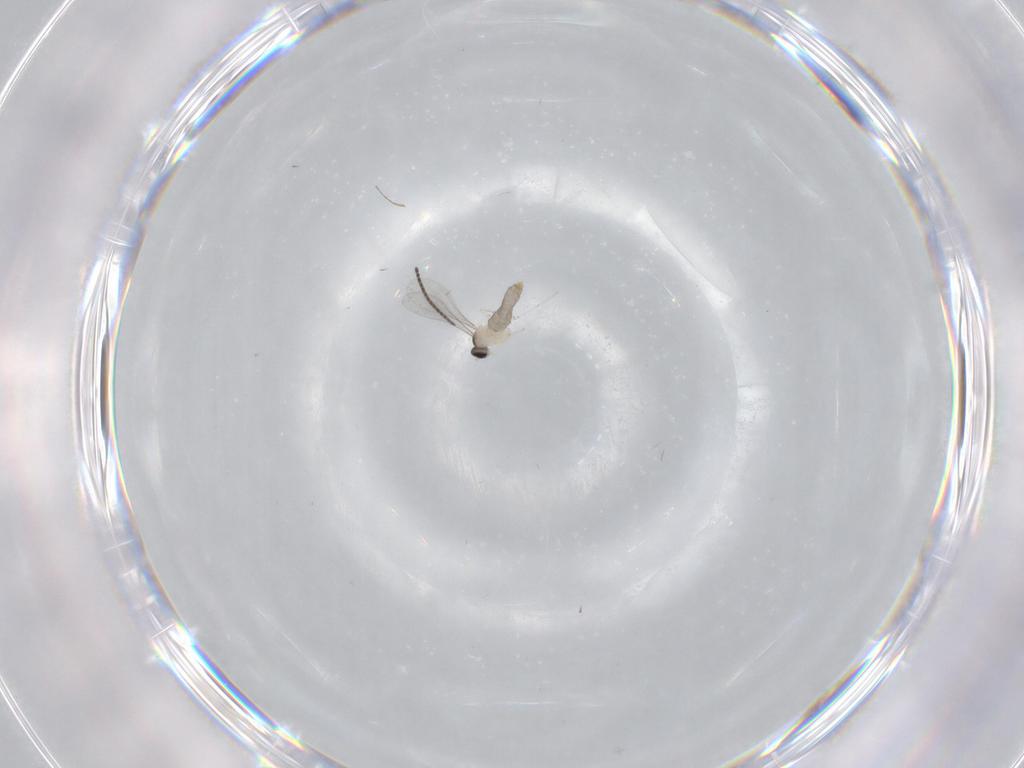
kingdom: Animalia
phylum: Arthropoda
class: Insecta
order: Diptera
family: Cecidomyiidae
